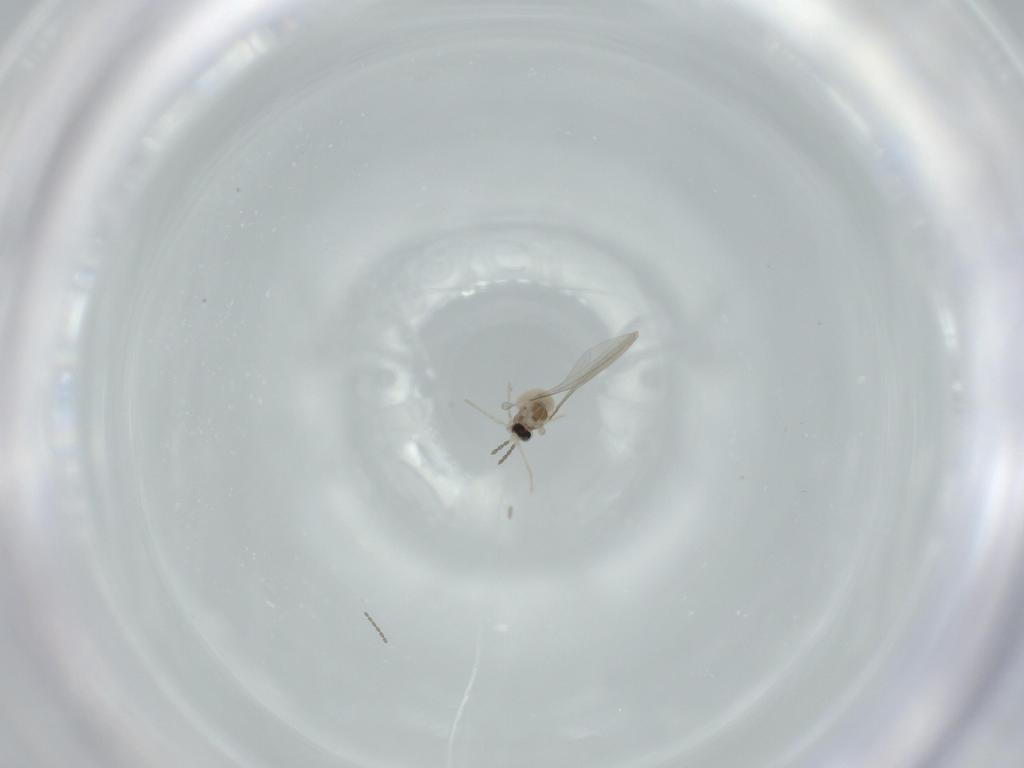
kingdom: Animalia
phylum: Arthropoda
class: Insecta
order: Diptera
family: Cecidomyiidae
